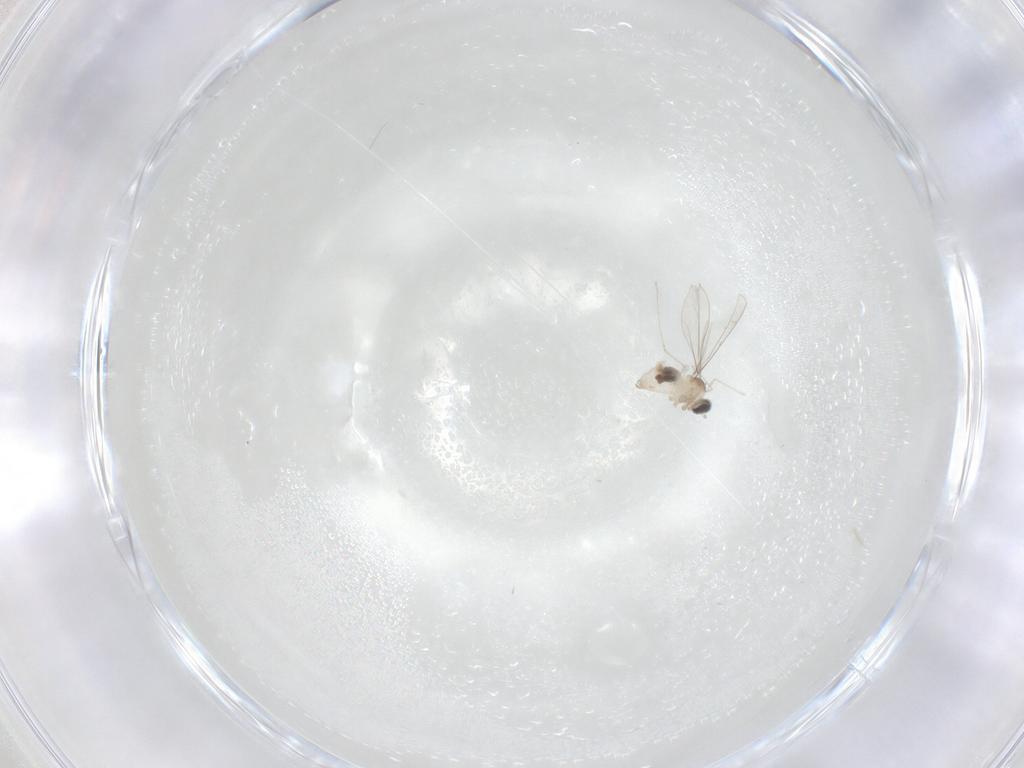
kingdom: Animalia
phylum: Arthropoda
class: Insecta
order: Diptera
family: Cecidomyiidae
